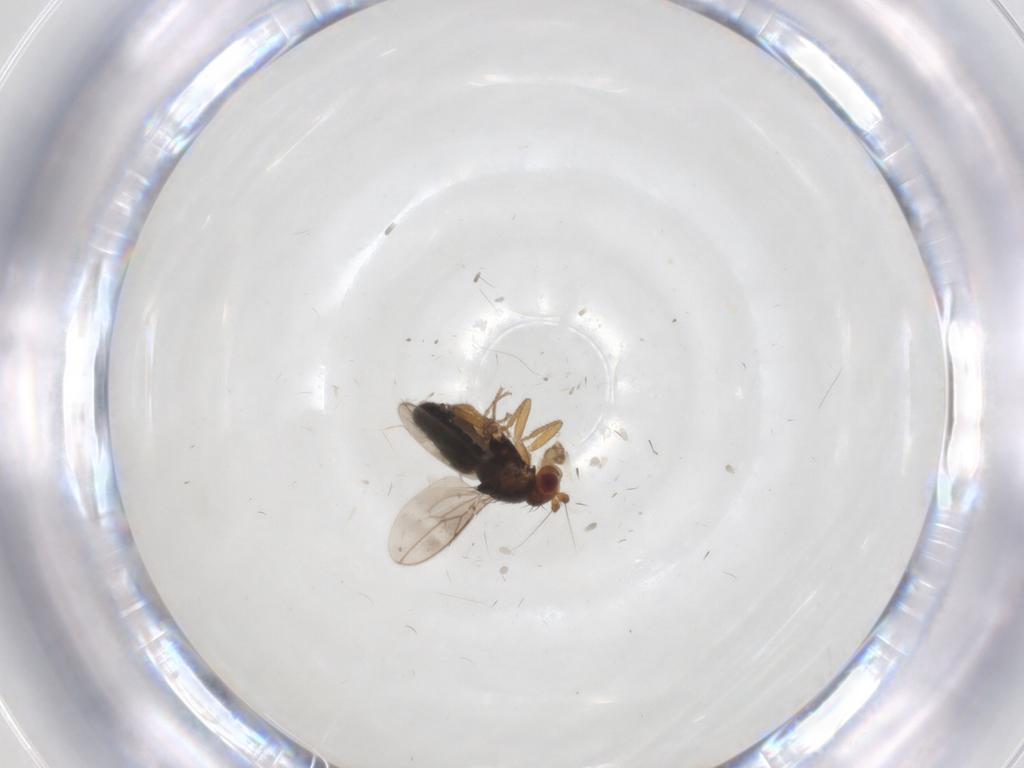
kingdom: Animalia
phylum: Arthropoda
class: Insecta
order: Diptera
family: Sphaeroceridae
